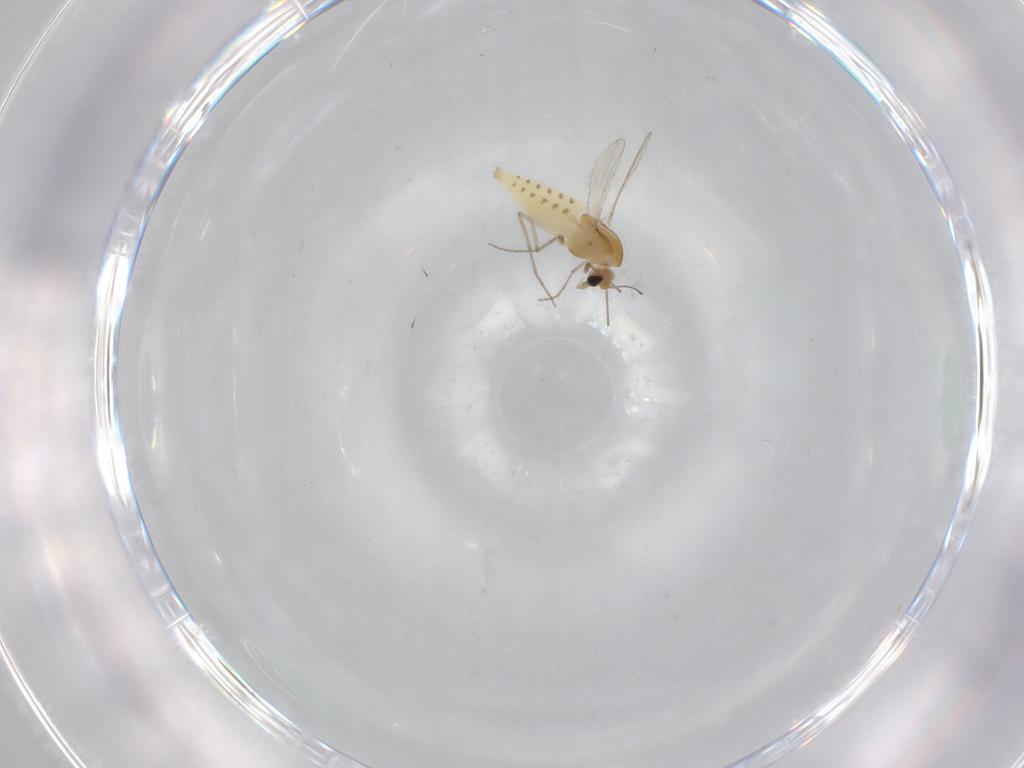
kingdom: Animalia
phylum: Arthropoda
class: Insecta
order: Diptera
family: Chironomidae
